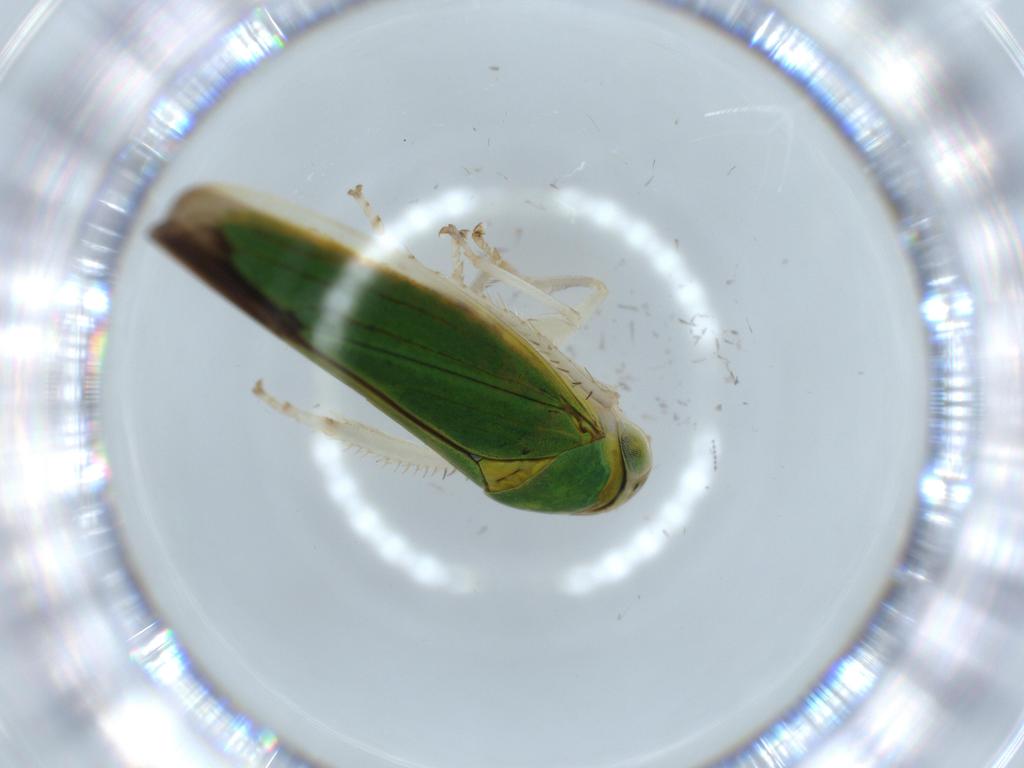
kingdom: Animalia
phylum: Arthropoda
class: Insecta
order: Hemiptera
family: Cicadellidae
